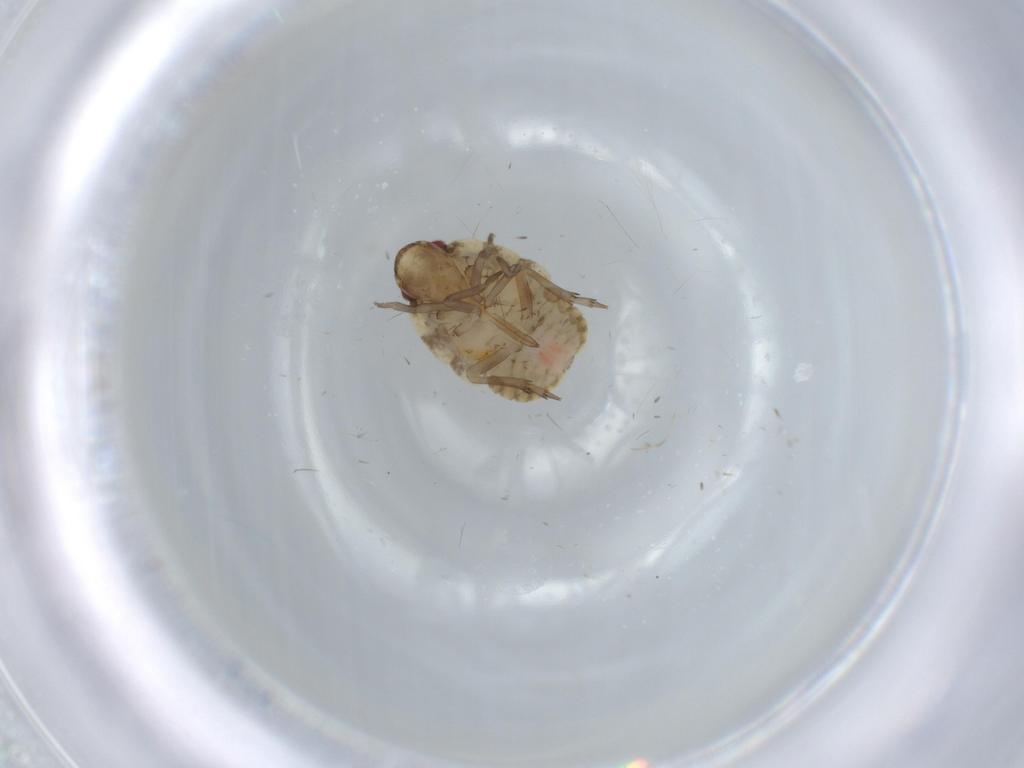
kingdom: Animalia
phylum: Arthropoda
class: Insecta
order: Hemiptera
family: Flatidae
